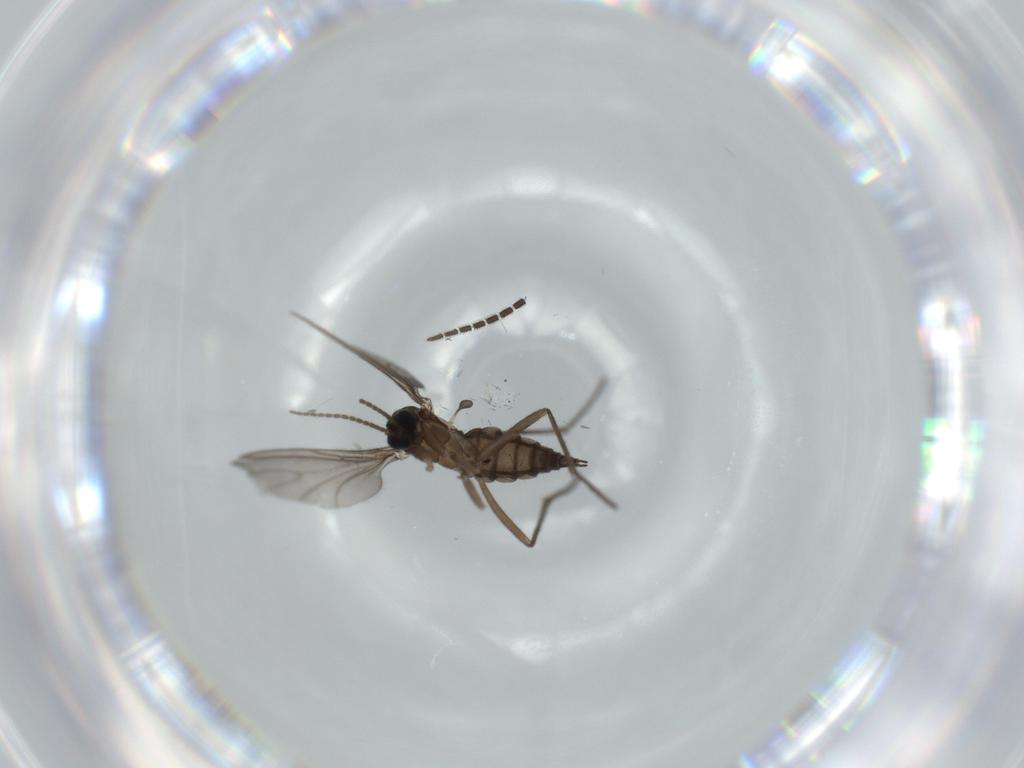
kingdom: Animalia
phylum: Arthropoda
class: Insecta
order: Diptera
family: Sciaridae
